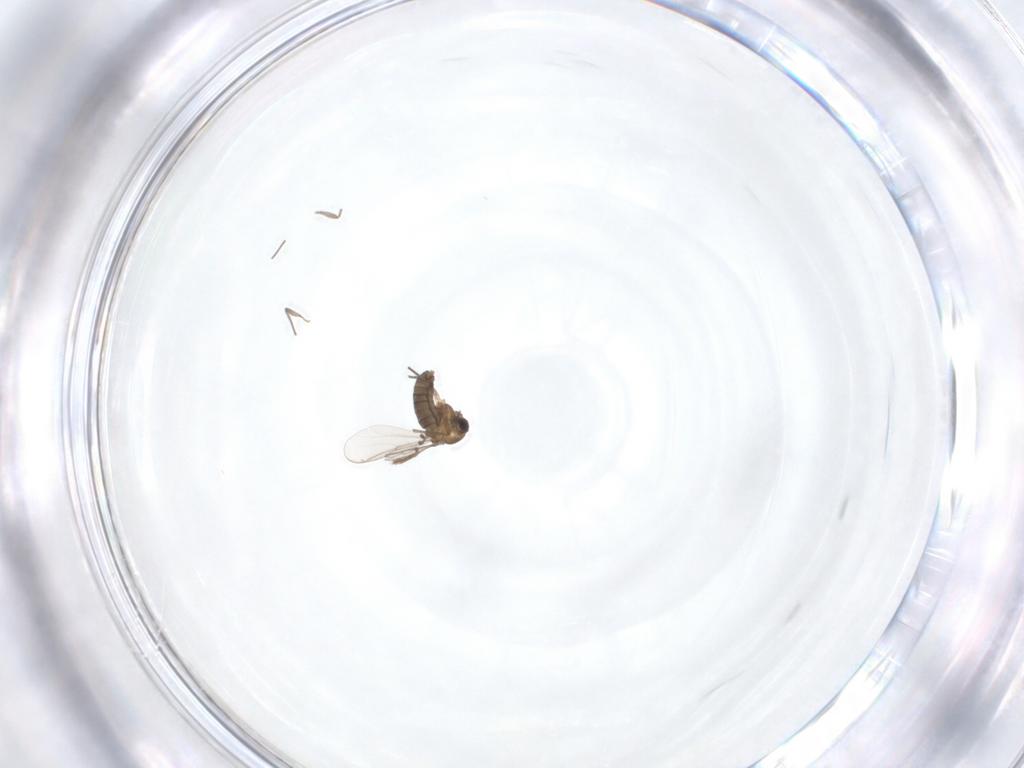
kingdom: Animalia
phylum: Arthropoda
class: Insecta
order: Diptera
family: Chironomidae
